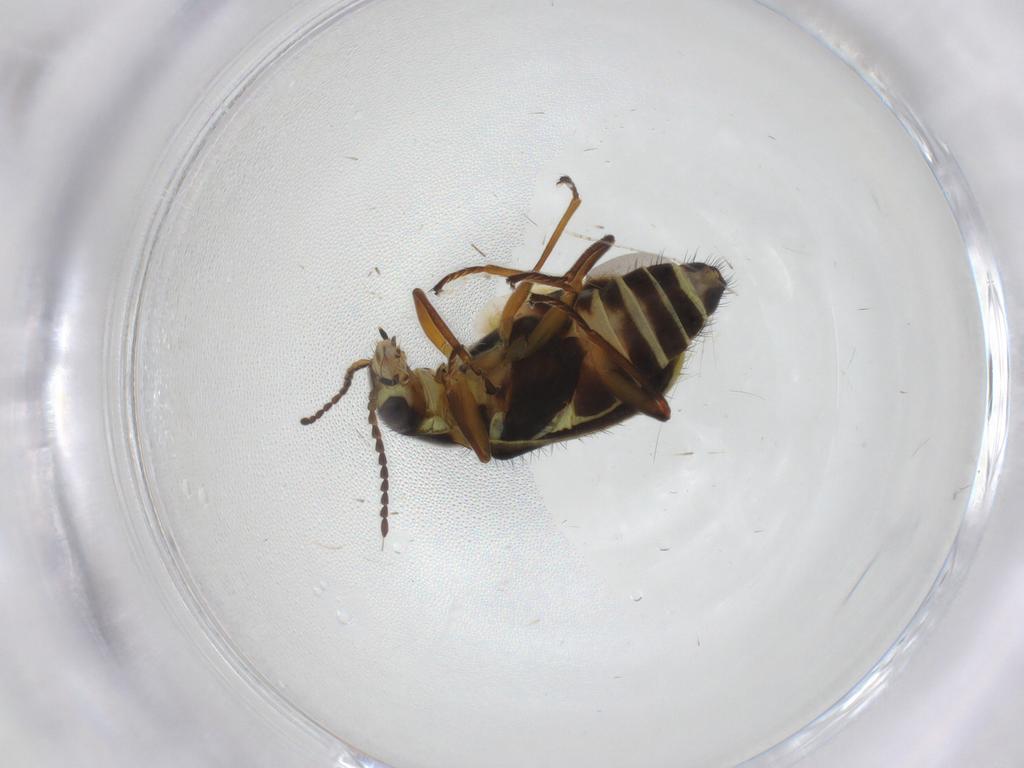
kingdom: Animalia
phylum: Arthropoda
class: Insecta
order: Coleoptera
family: Melyridae
